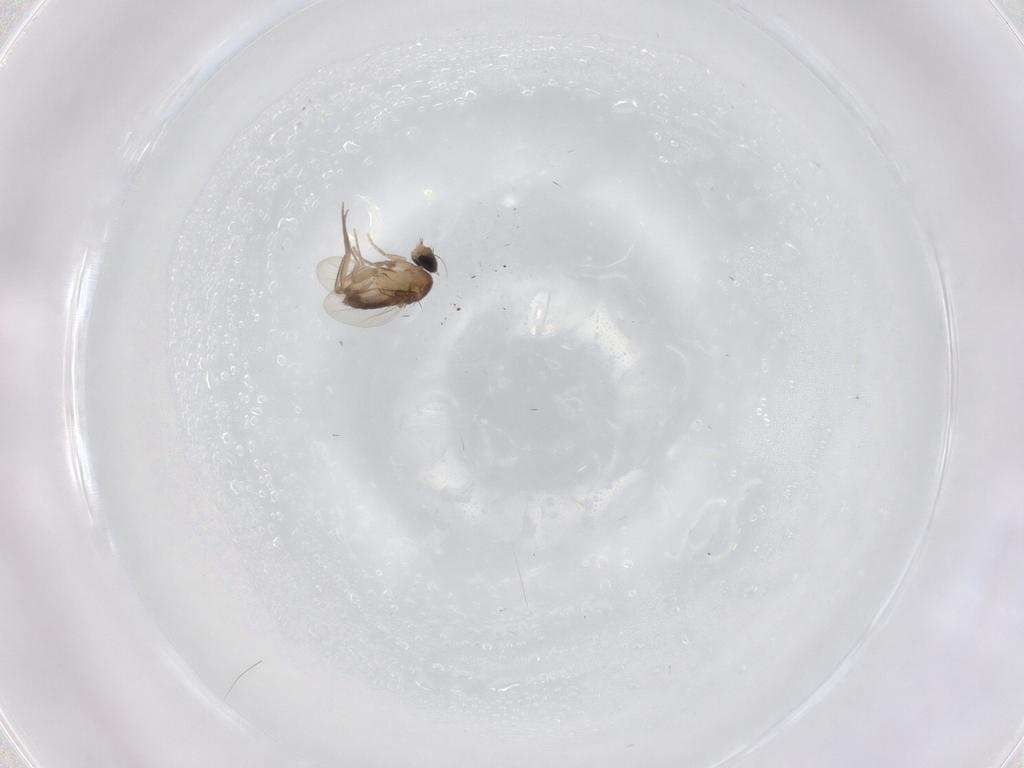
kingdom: Animalia
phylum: Arthropoda
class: Insecta
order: Diptera
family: Phoridae
